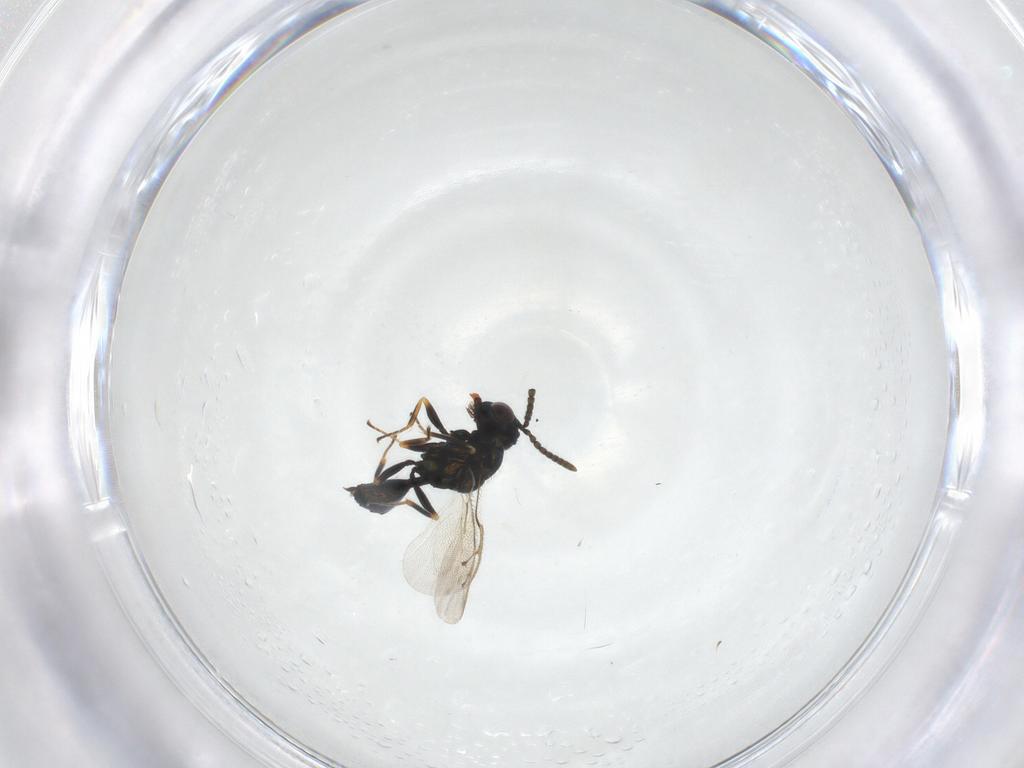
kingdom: Animalia
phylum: Arthropoda
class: Insecta
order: Hymenoptera
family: Pteromalidae
